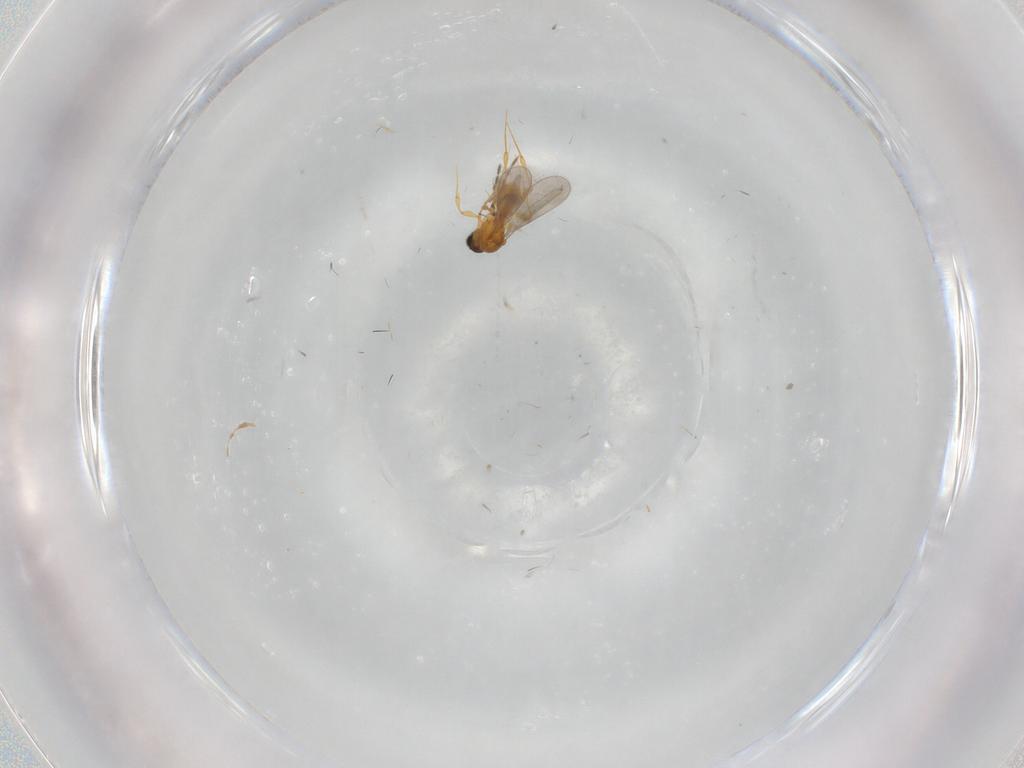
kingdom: Animalia
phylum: Arthropoda
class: Insecta
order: Hymenoptera
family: Platygastridae
